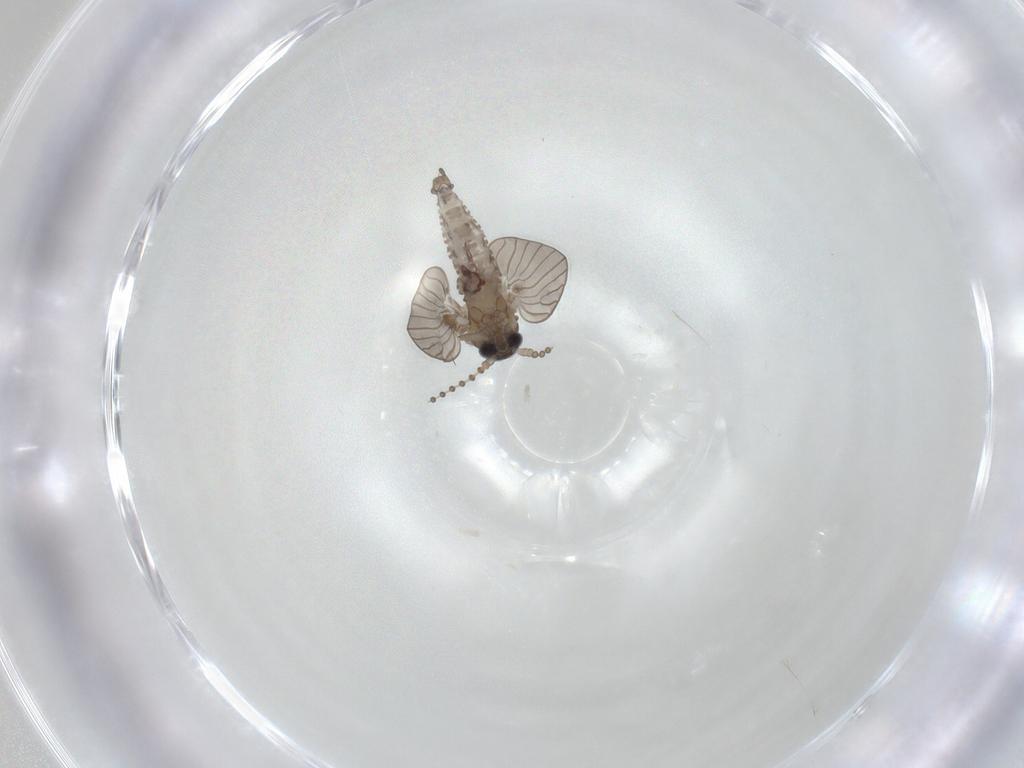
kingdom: Animalia
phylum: Arthropoda
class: Insecta
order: Diptera
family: Psychodidae
